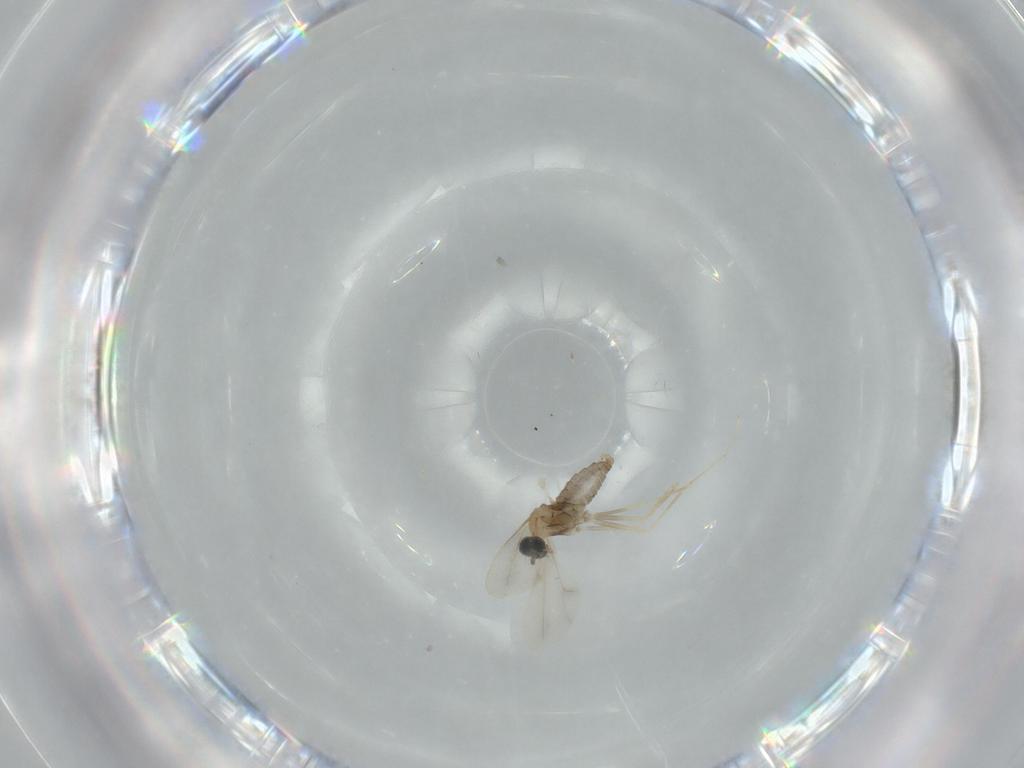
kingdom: Animalia
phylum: Arthropoda
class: Insecta
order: Diptera
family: Cecidomyiidae
